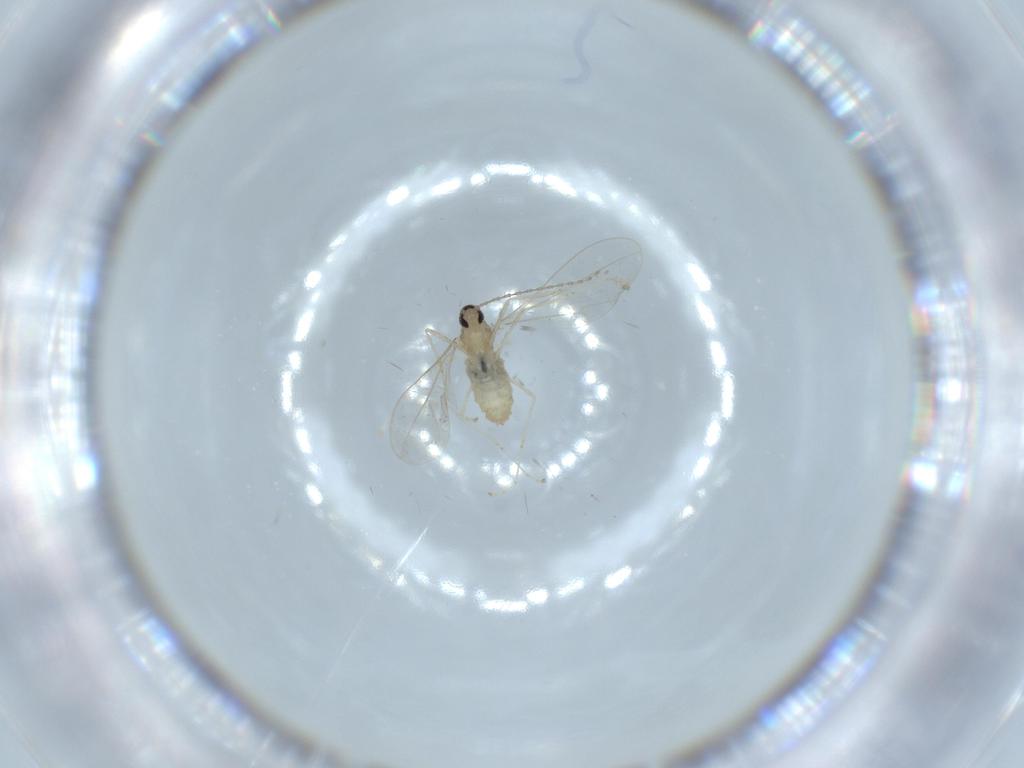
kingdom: Animalia
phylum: Arthropoda
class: Insecta
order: Diptera
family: Cecidomyiidae
